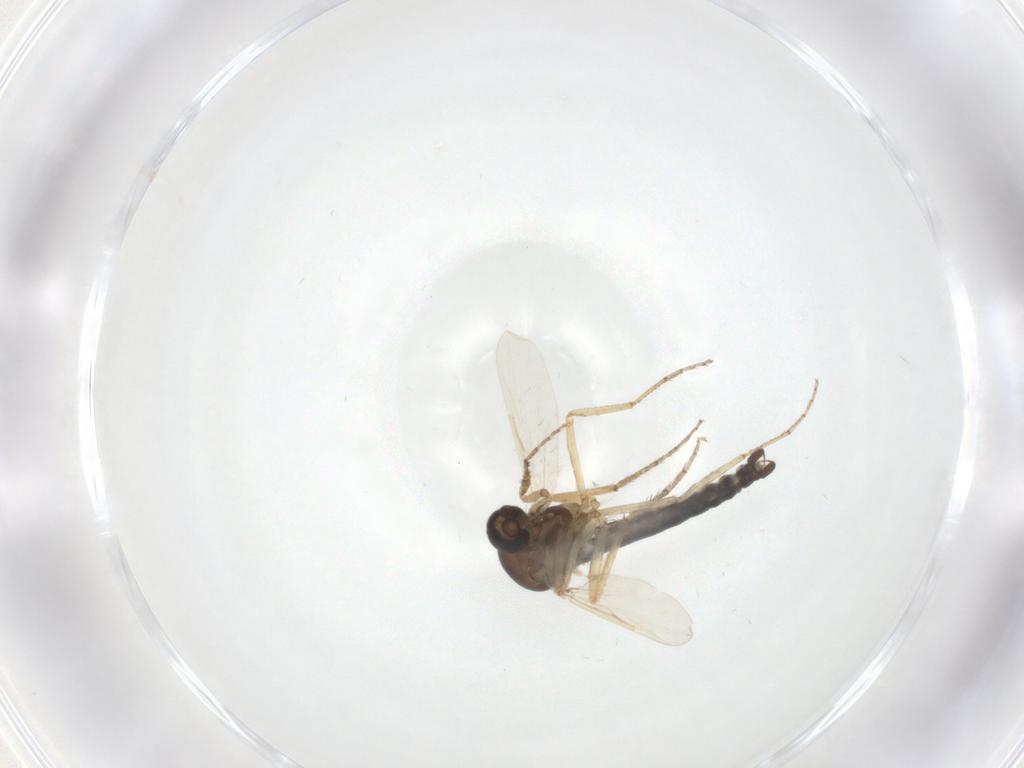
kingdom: Animalia
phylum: Arthropoda
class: Insecta
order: Diptera
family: Ceratopogonidae
